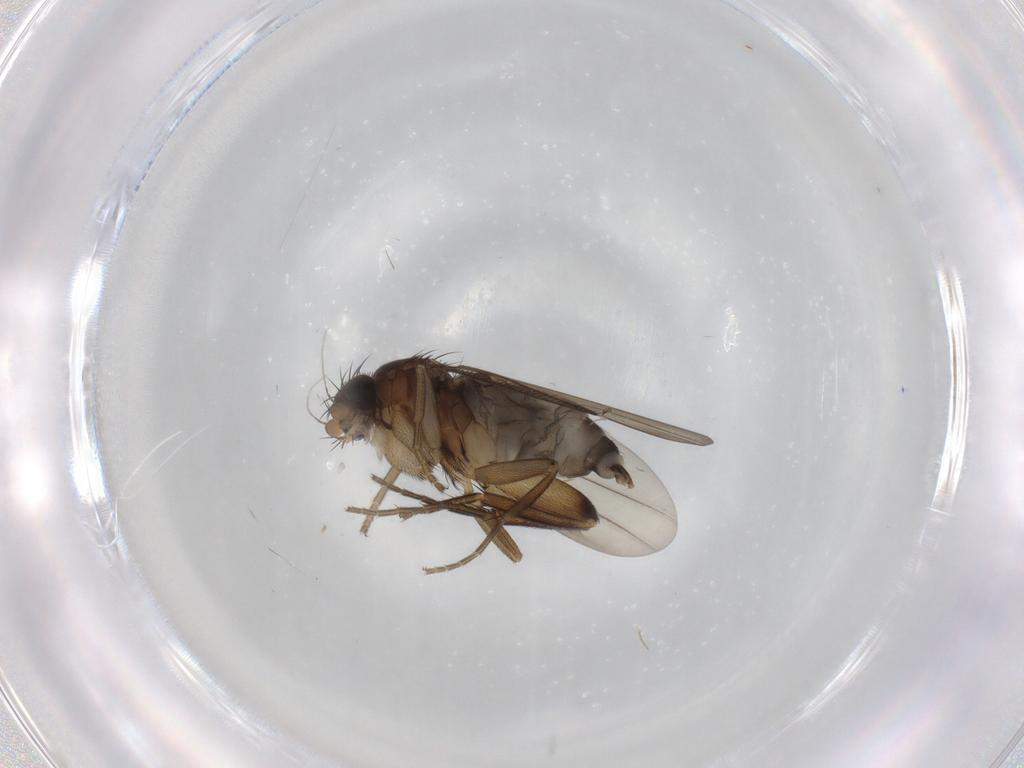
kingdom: Animalia
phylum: Arthropoda
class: Insecta
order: Diptera
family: Phoridae
